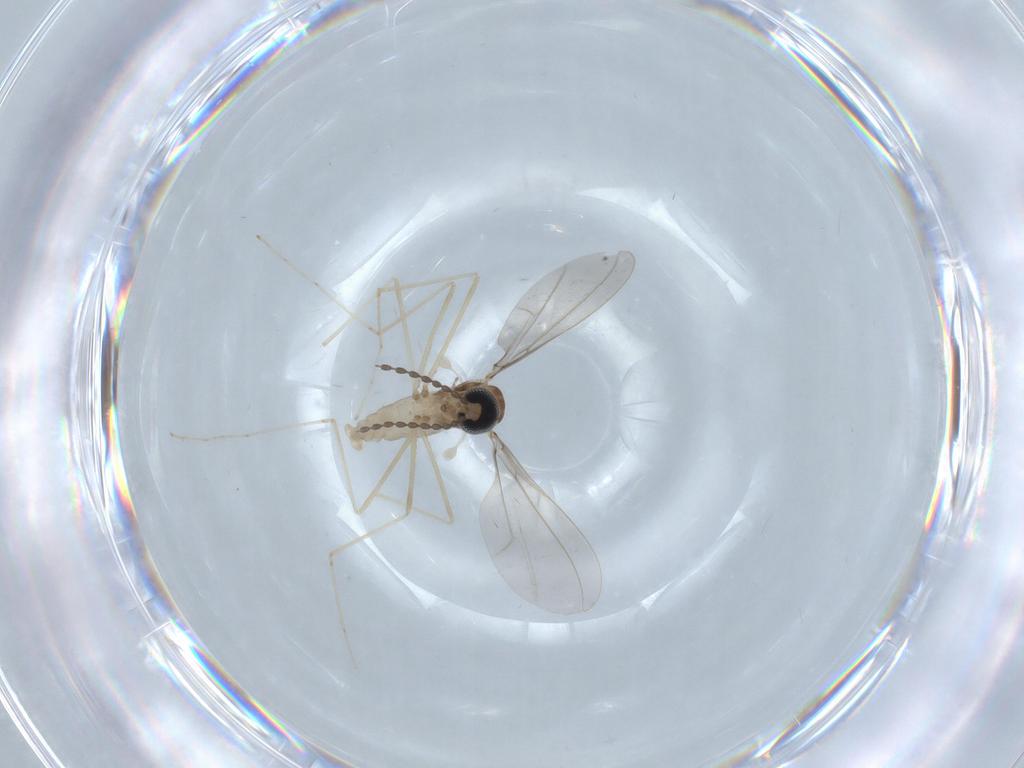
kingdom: Animalia
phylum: Arthropoda
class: Insecta
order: Diptera
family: Cecidomyiidae
